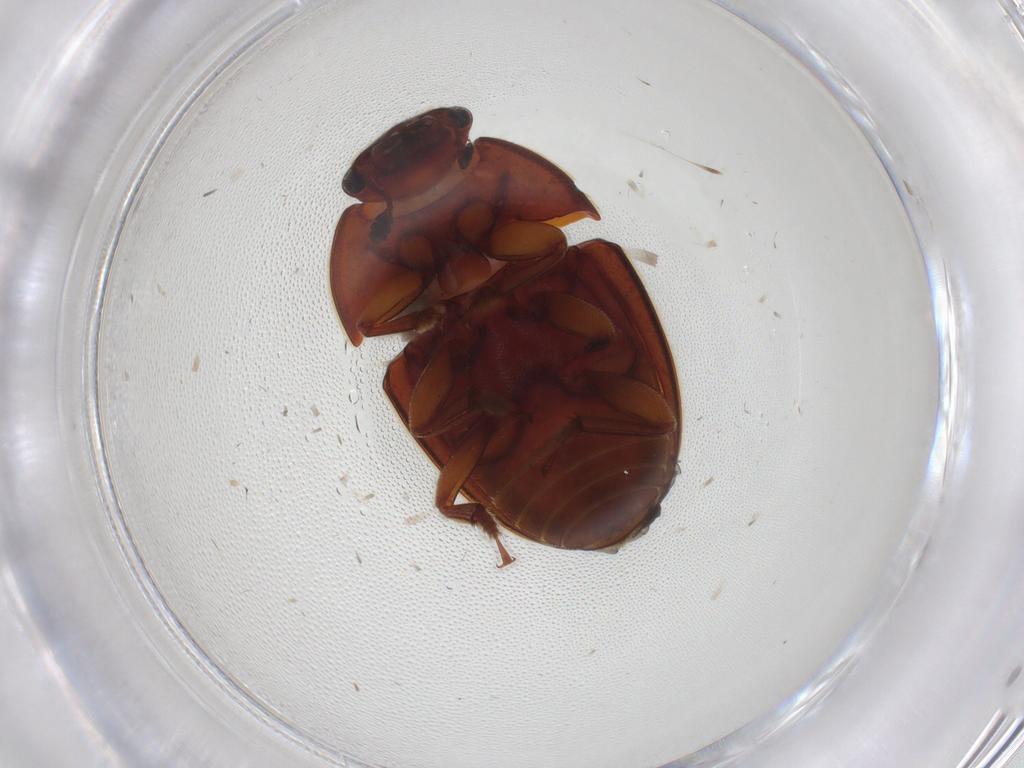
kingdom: Animalia
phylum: Arthropoda
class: Insecta
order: Coleoptera
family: Nitidulidae
